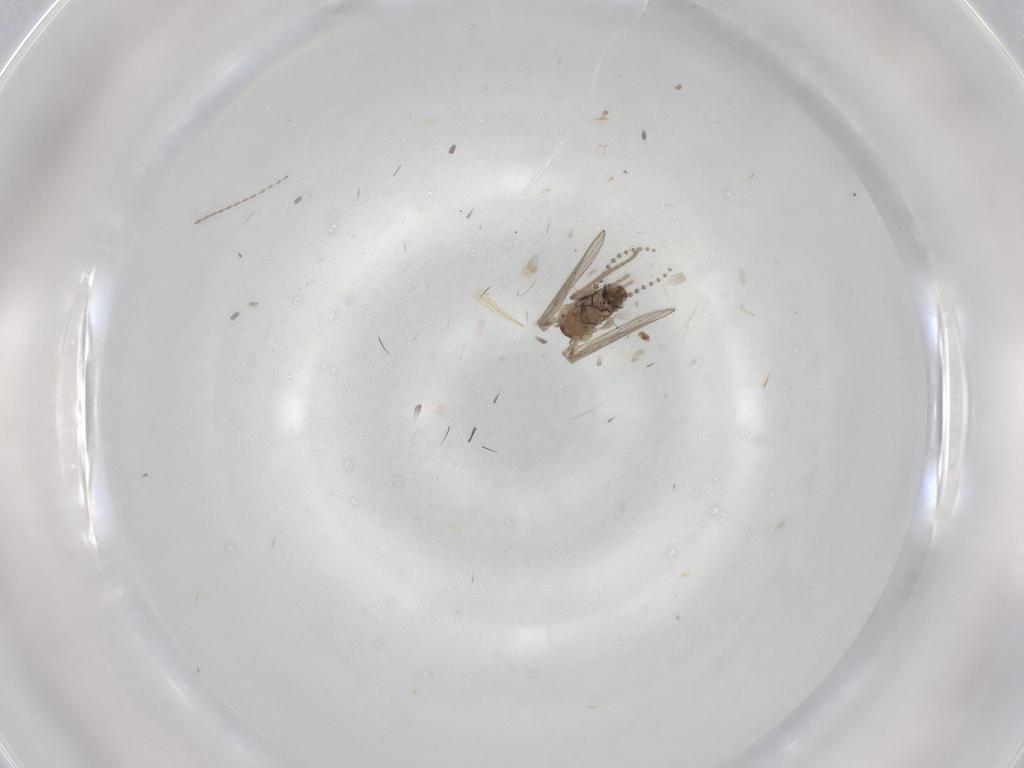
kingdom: Animalia
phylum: Arthropoda
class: Insecta
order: Diptera
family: Psychodidae
